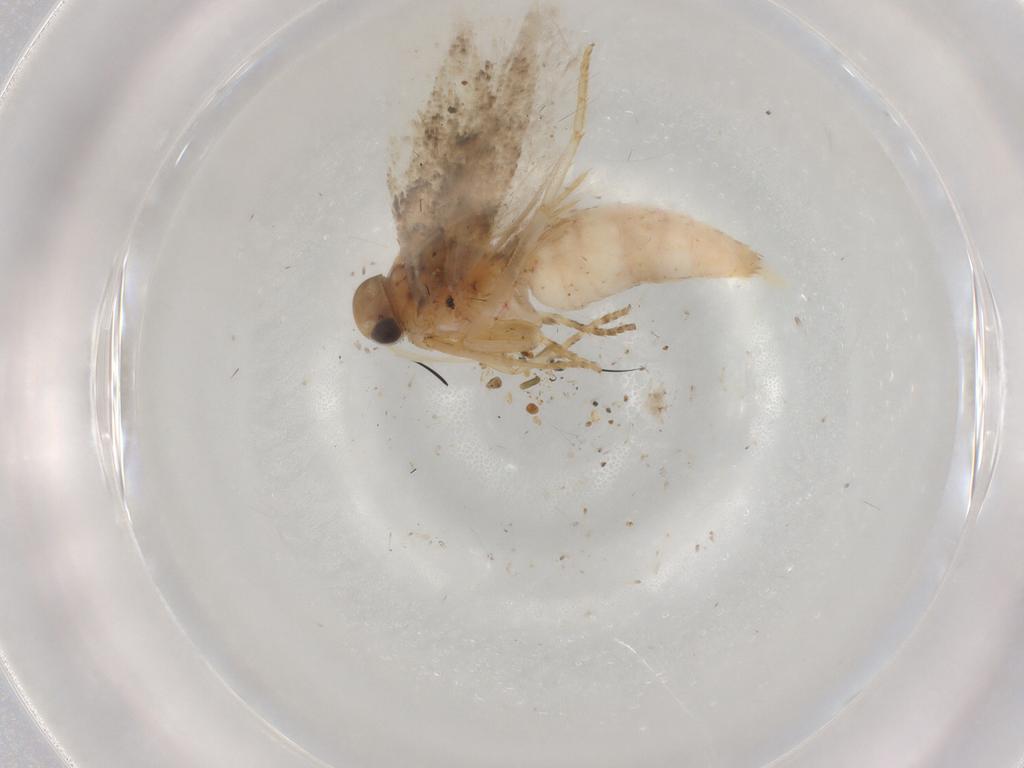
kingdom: Animalia
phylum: Arthropoda
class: Insecta
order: Lepidoptera
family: Gelechiidae
